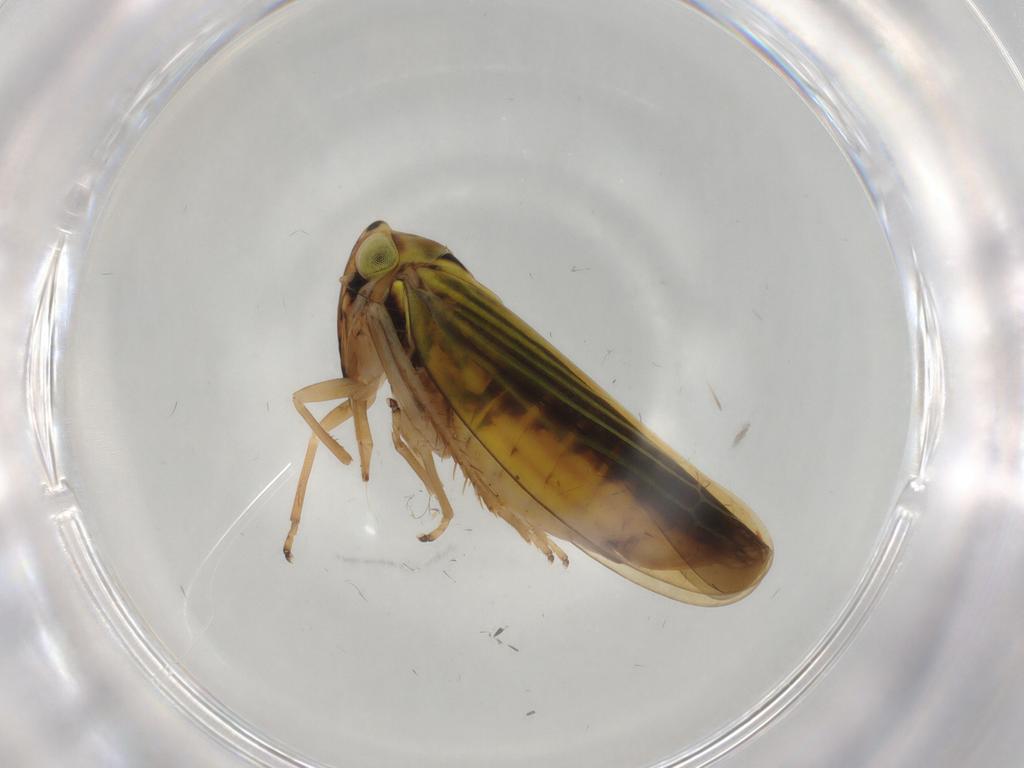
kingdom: Animalia
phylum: Arthropoda
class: Insecta
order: Hemiptera
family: Cicadellidae
